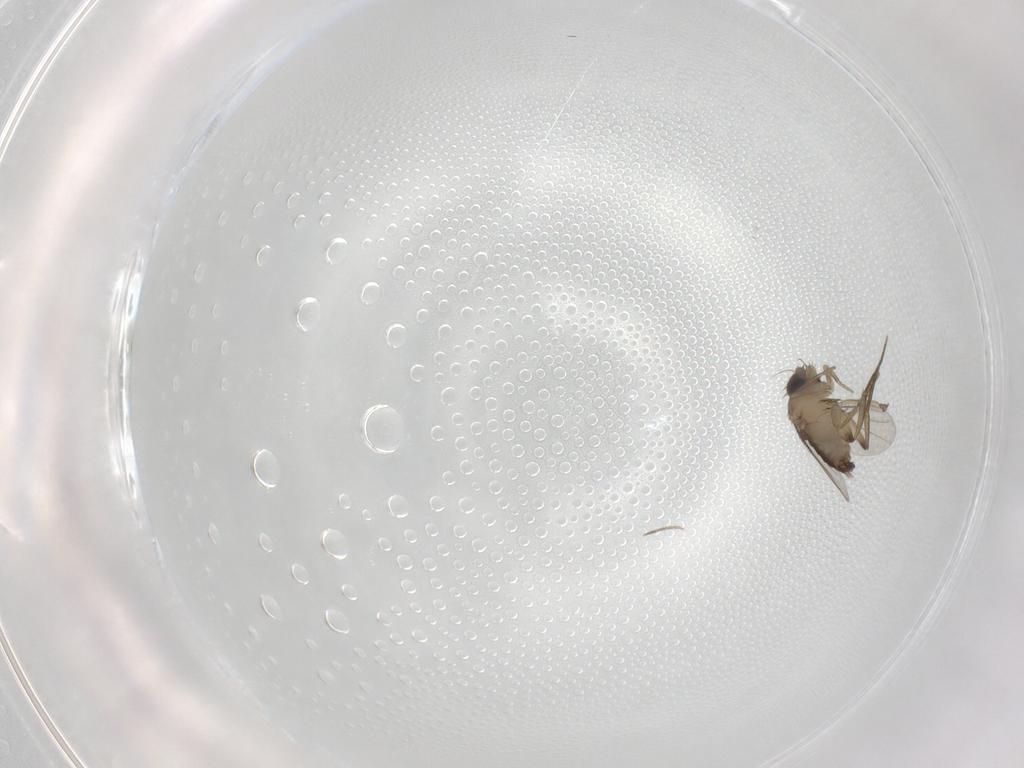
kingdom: Animalia
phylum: Arthropoda
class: Insecta
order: Diptera
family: Phoridae
